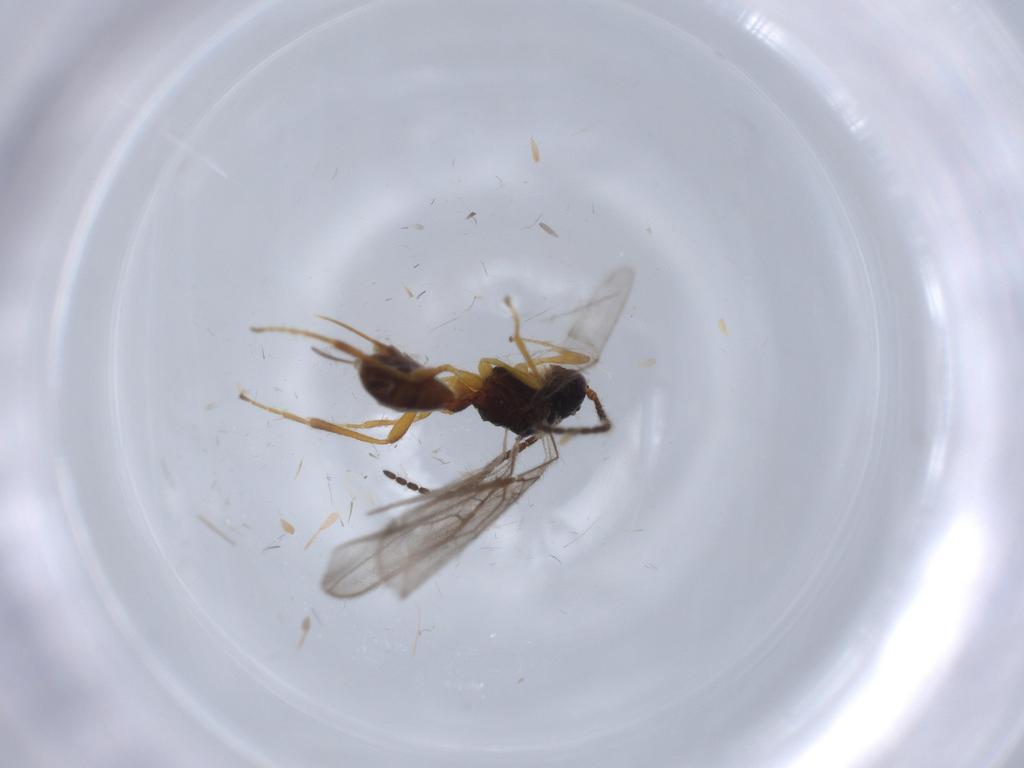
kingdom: Animalia
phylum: Arthropoda
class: Insecta
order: Hymenoptera
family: Braconidae
